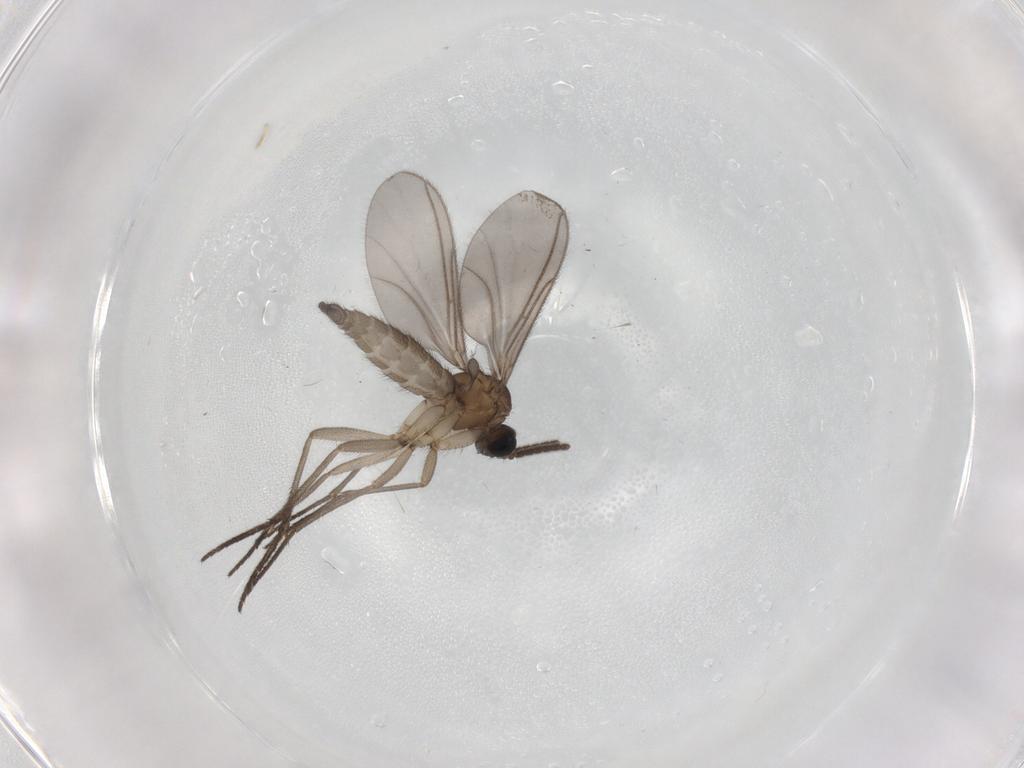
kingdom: Animalia
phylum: Arthropoda
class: Insecta
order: Diptera
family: Sciaridae
